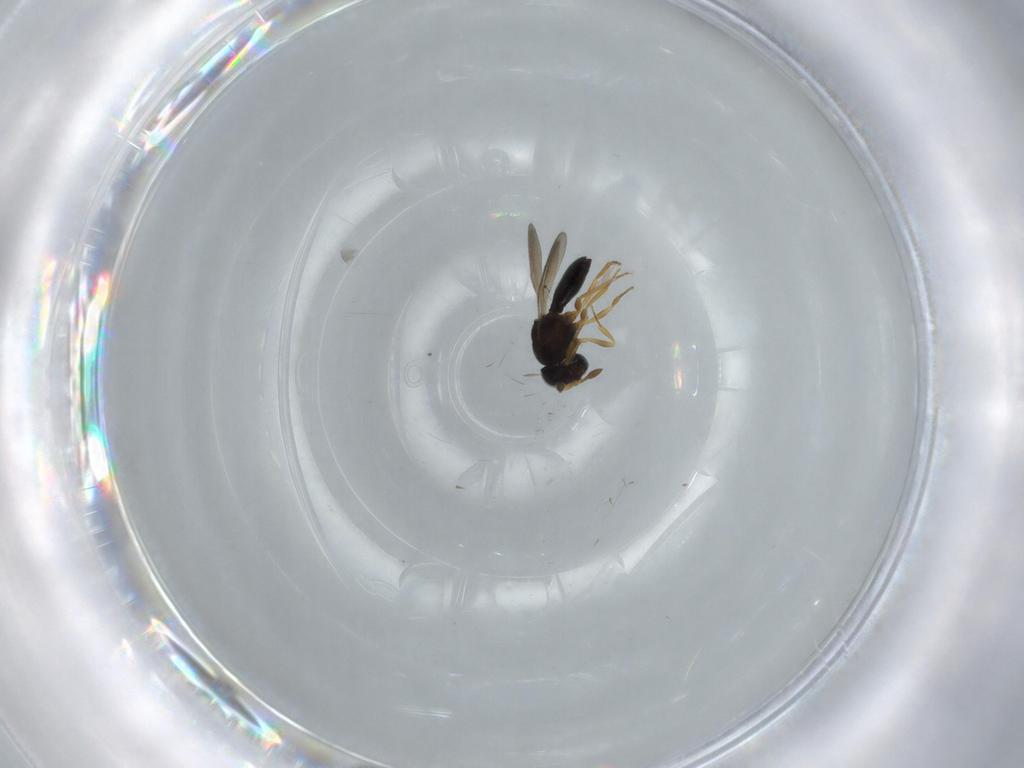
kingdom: Animalia
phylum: Arthropoda
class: Insecta
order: Hymenoptera
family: Scelionidae
